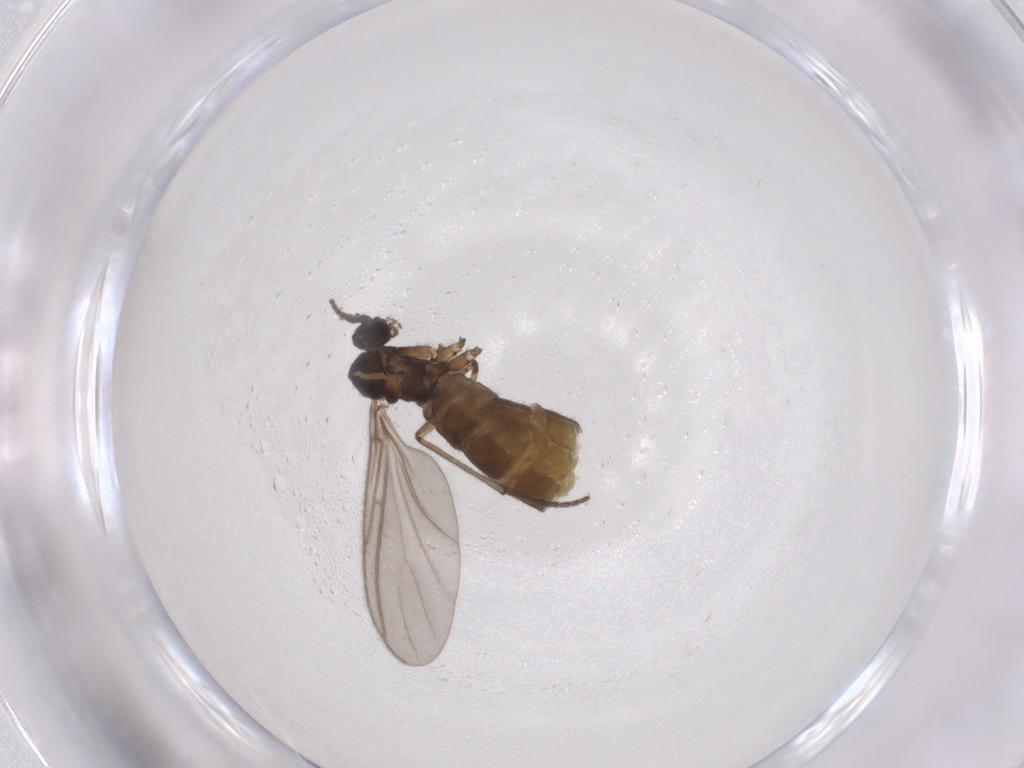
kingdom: Animalia
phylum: Arthropoda
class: Insecta
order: Diptera
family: Sciaridae
